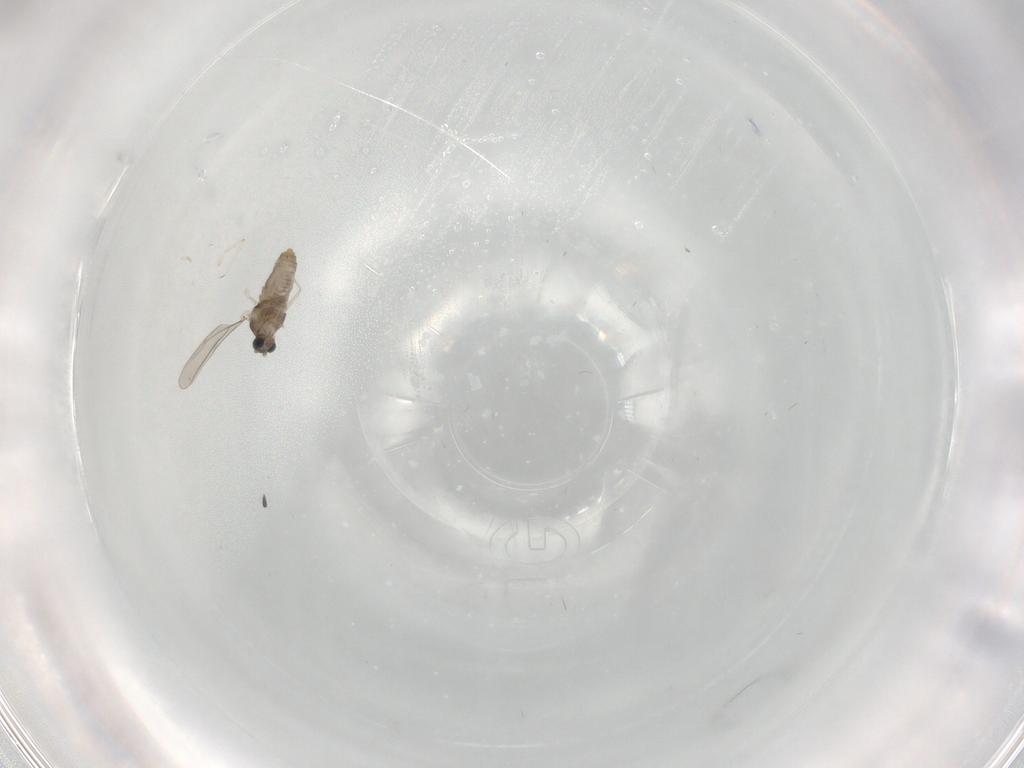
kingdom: Animalia
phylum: Arthropoda
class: Insecta
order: Diptera
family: Cecidomyiidae
